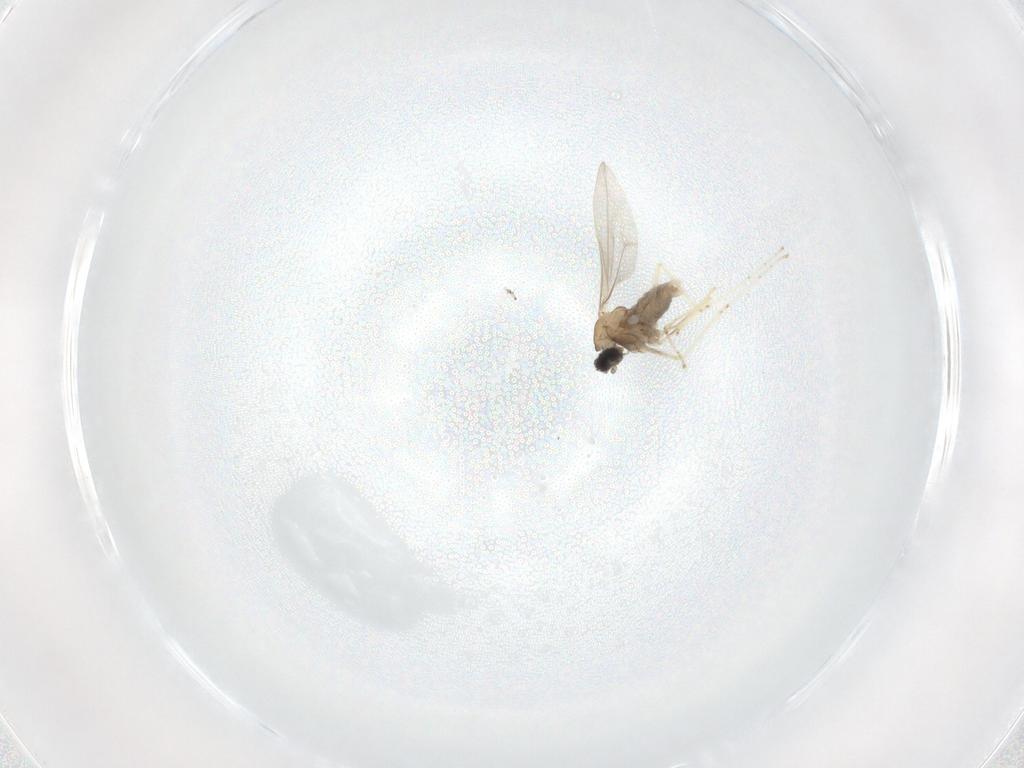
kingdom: Animalia
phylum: Arthropoda
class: Insecta
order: Diptera
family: Cecidomyiidae
